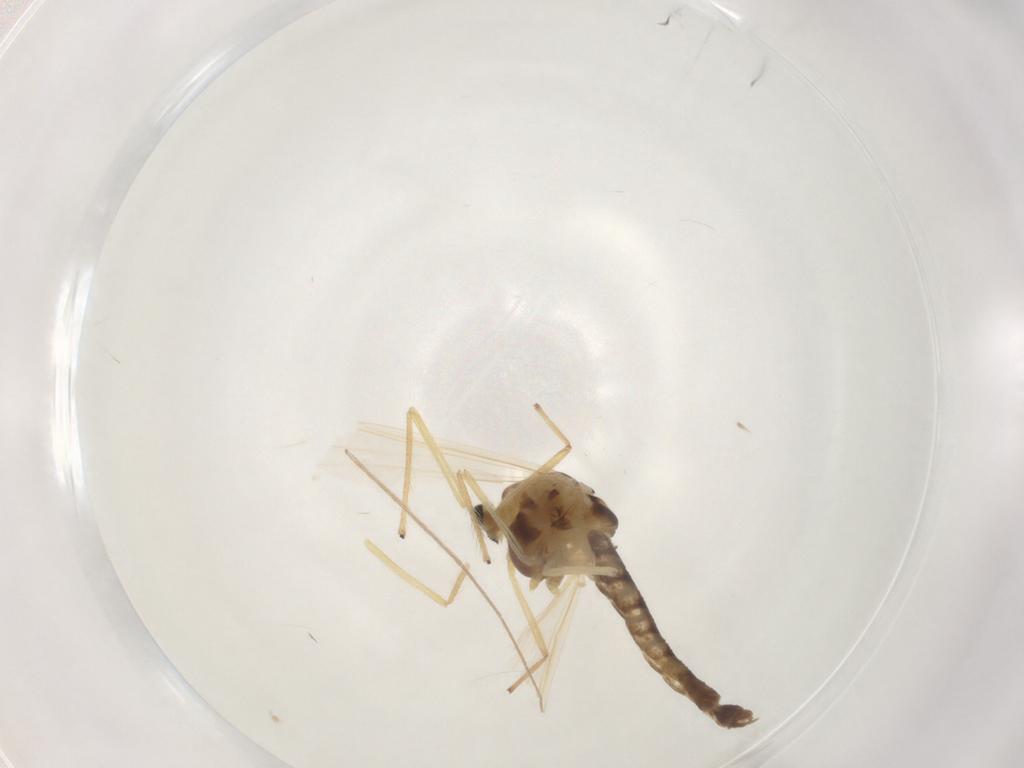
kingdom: Animalia
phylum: Arthropoda
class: Insecta
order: Diptera
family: Chironomidae
